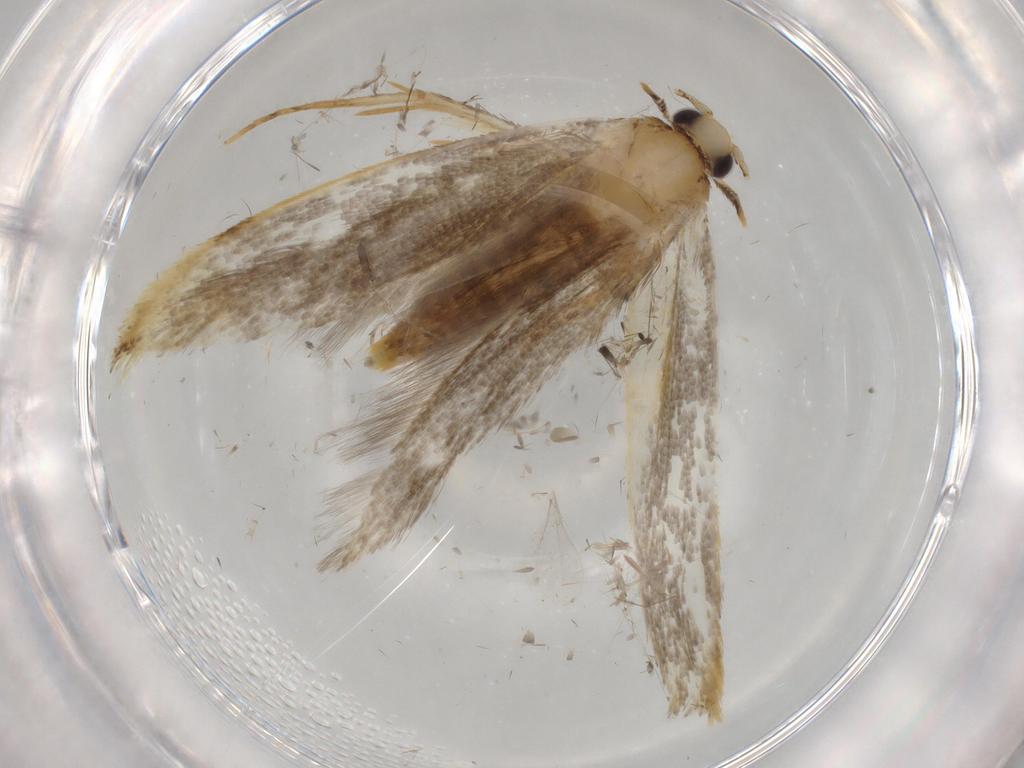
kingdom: Animalia
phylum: Arthropoda
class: Insecta
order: Lepidoptera
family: Tineidae
